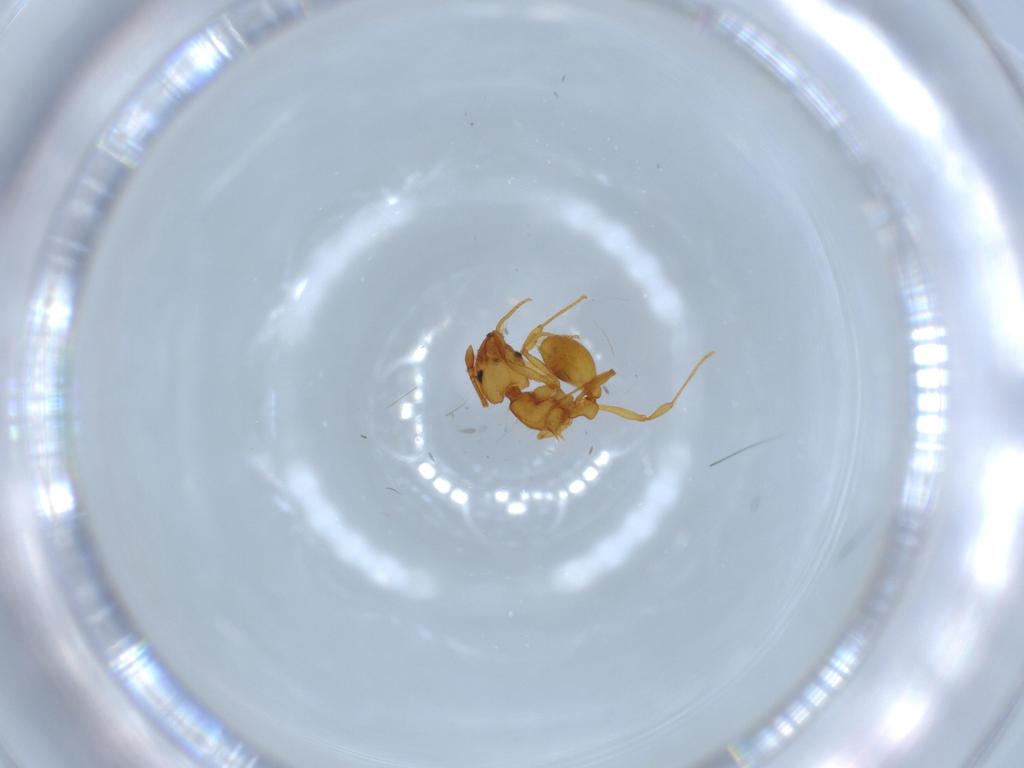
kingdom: Animalia
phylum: Arthropoda
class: Insecta
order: Hymenoptera
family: Formicidae
